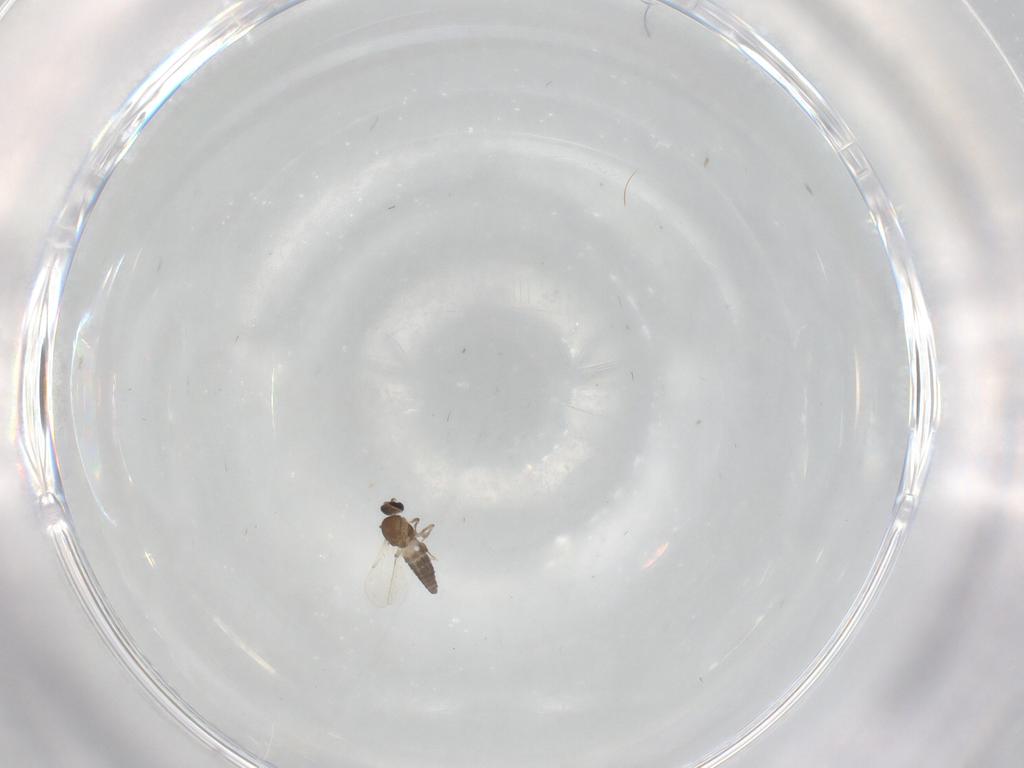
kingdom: Animalia
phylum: Arthropoda
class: Insecta
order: Diptera
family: Ceratopogonidae
